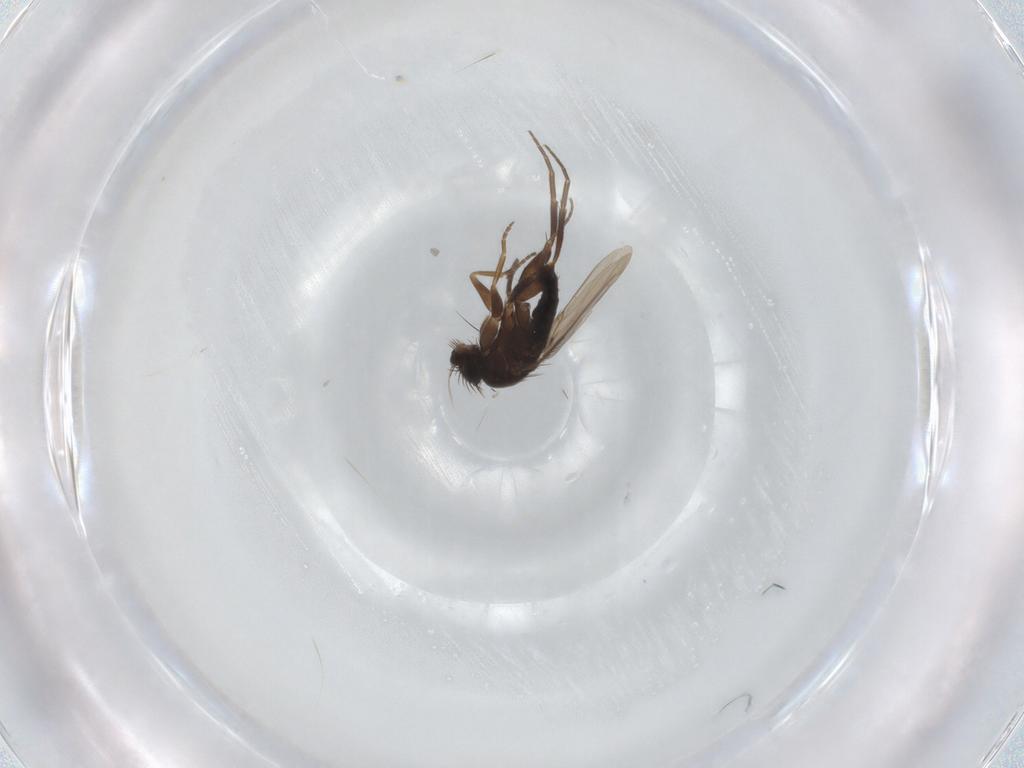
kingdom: Animalia
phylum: Arthropoda
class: Insecta
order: Diptera
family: Phoridae
